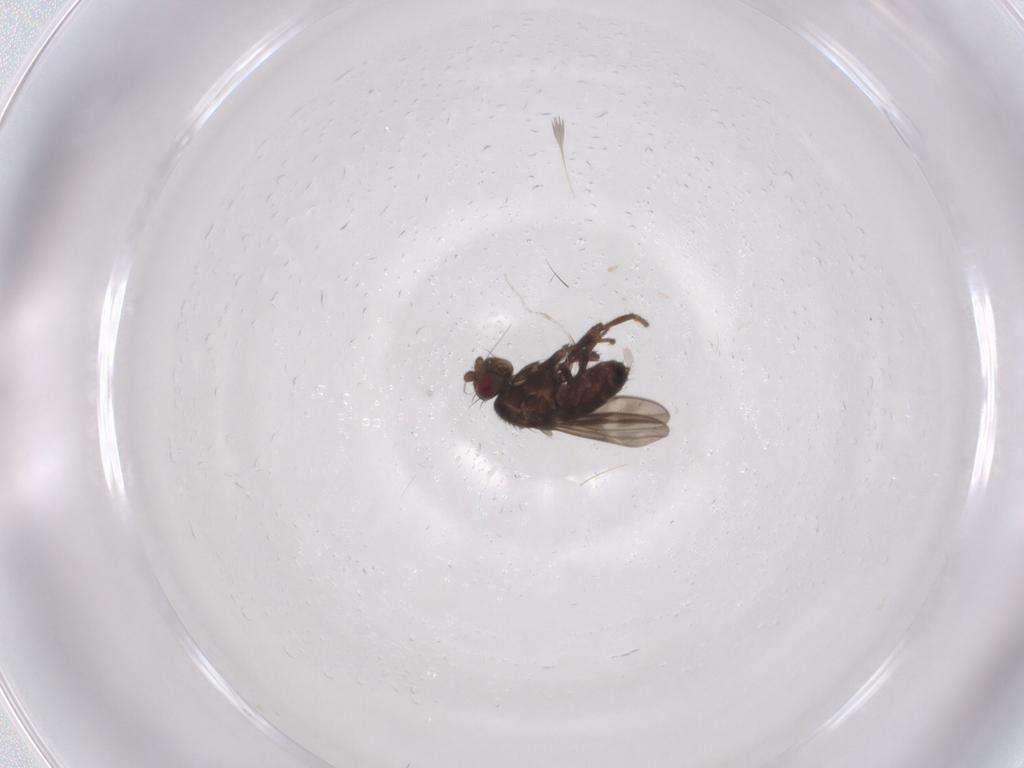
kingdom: Animalia
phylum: Arthropoda
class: Insecta
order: Diptera
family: Sphaeroceridae
